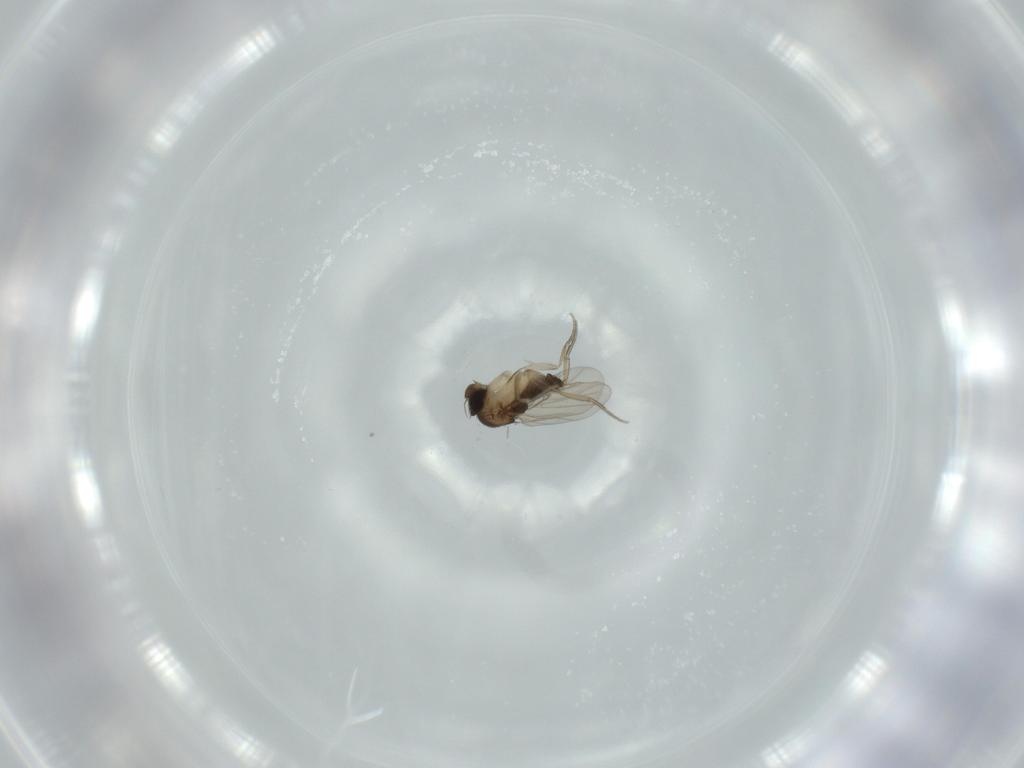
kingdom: Animalia
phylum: Arthropoda
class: Insecta
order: Diptera
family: Phoridae
